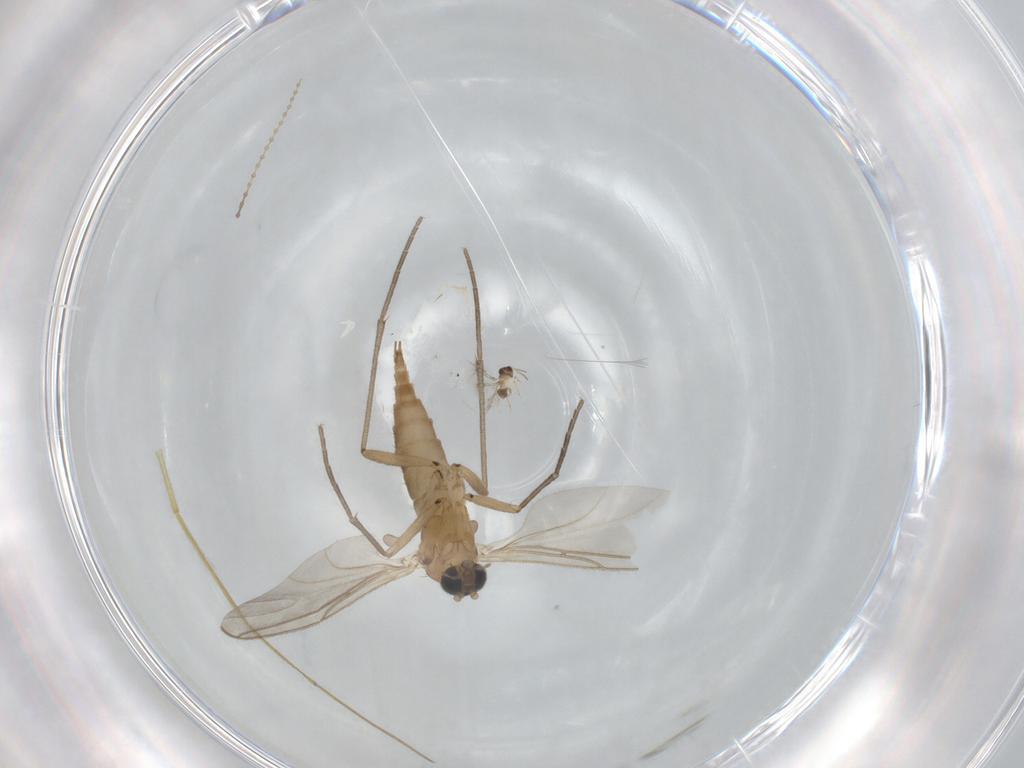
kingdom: Animalia
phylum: Arthropoda
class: Insecta
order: Diptera
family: Sciaridae
